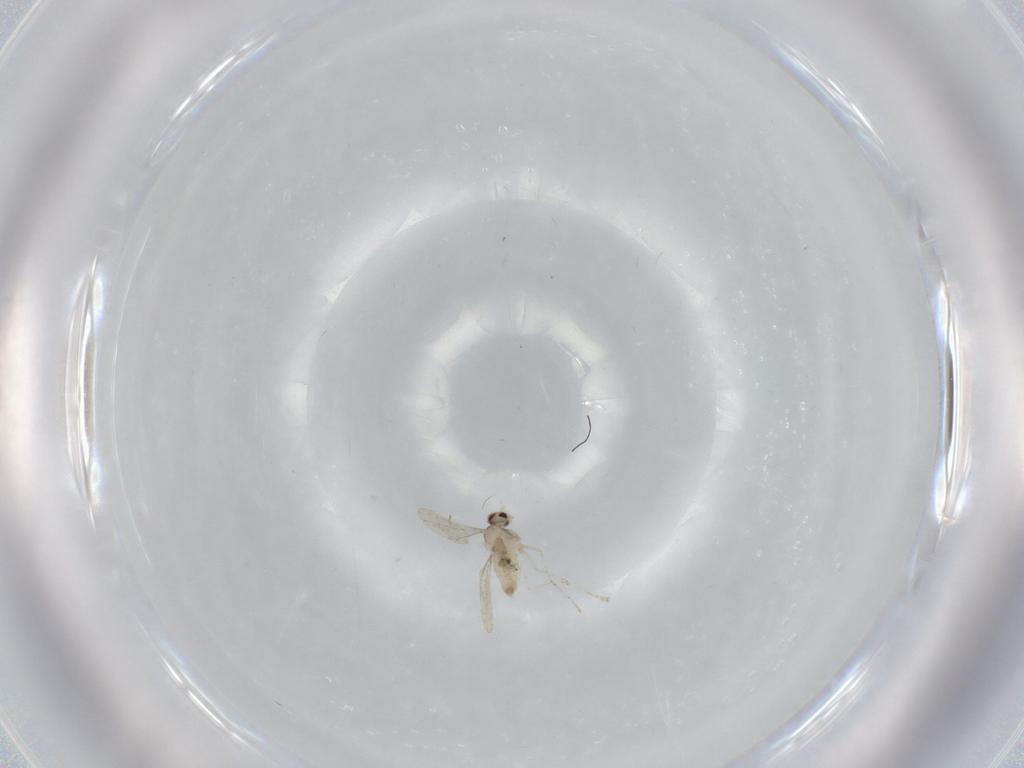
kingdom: Animalia
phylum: Arthropoda
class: Insecta
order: Diptera
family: Cecidomyiidae
